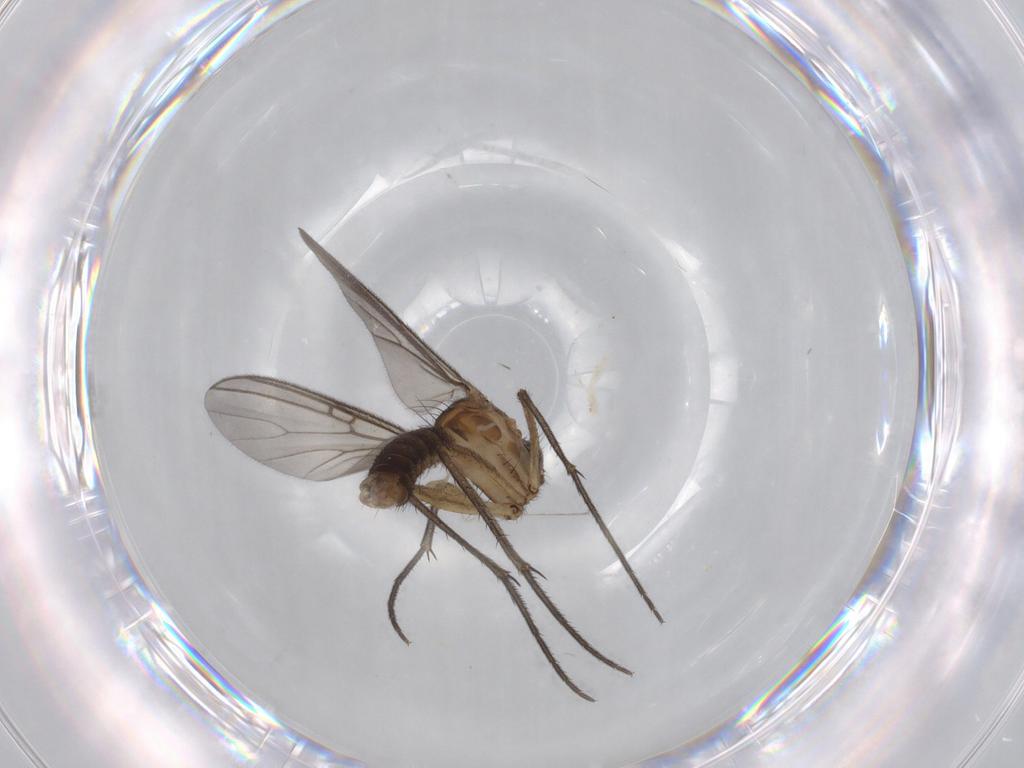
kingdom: Animalia
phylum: Arthropoda
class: Insecta
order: Diptera
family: Mycetophilidae
